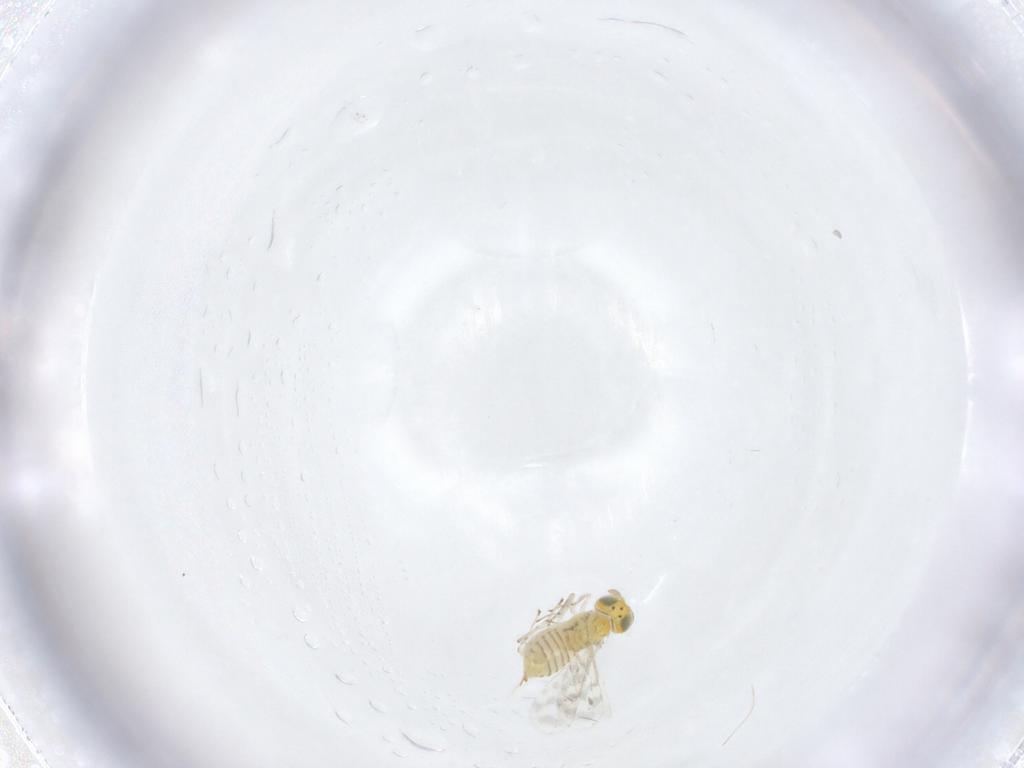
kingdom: Animalia
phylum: Arthropoda
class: Insecta
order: Hymenoptera
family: Aphelinidae
